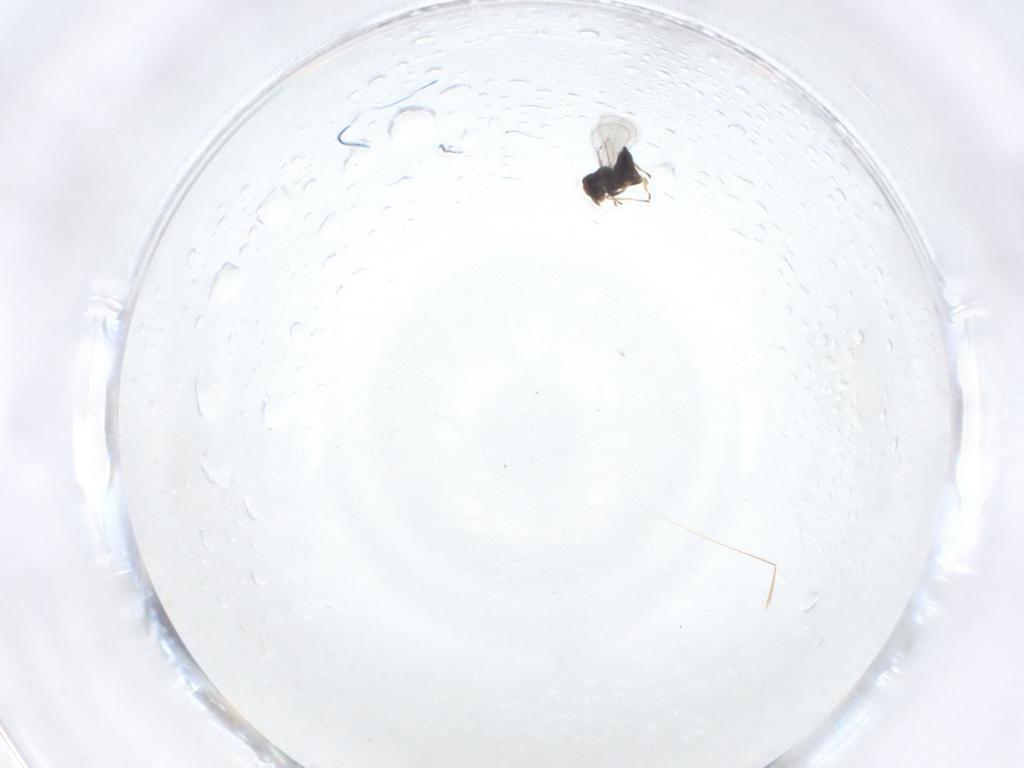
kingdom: Animalia
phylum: Arthropoda
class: Insecta
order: Hymenoptera
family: Eulophidae
